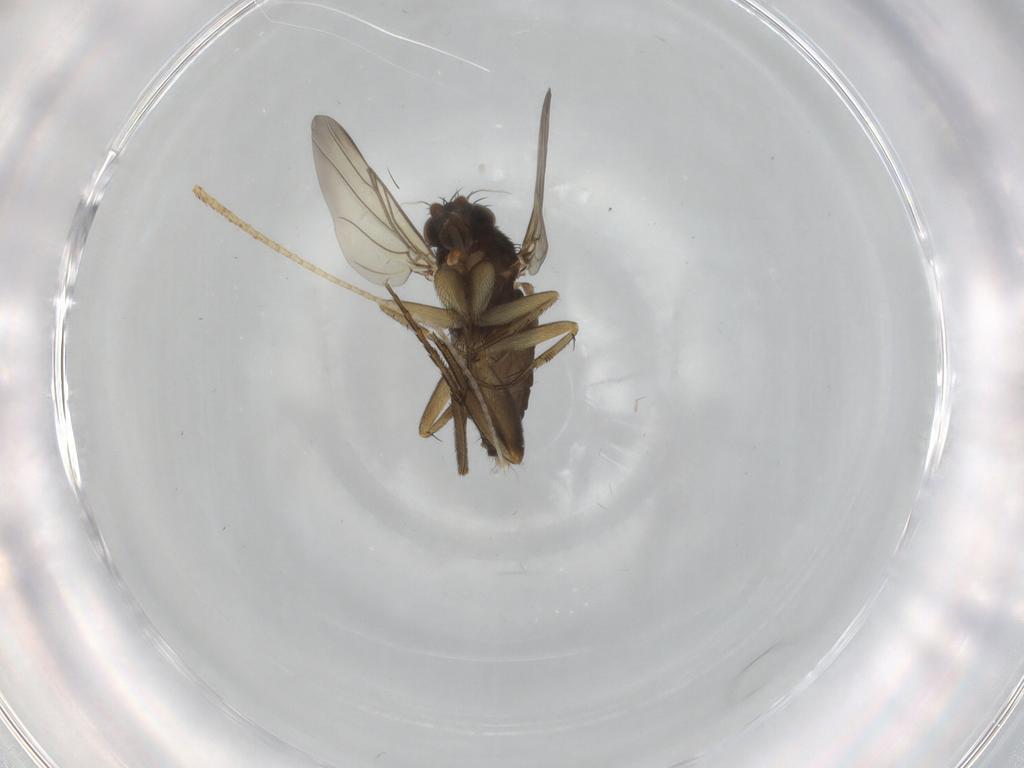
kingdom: Animalia
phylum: Arthropoda
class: Insecta
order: Diptera
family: Phoridae
